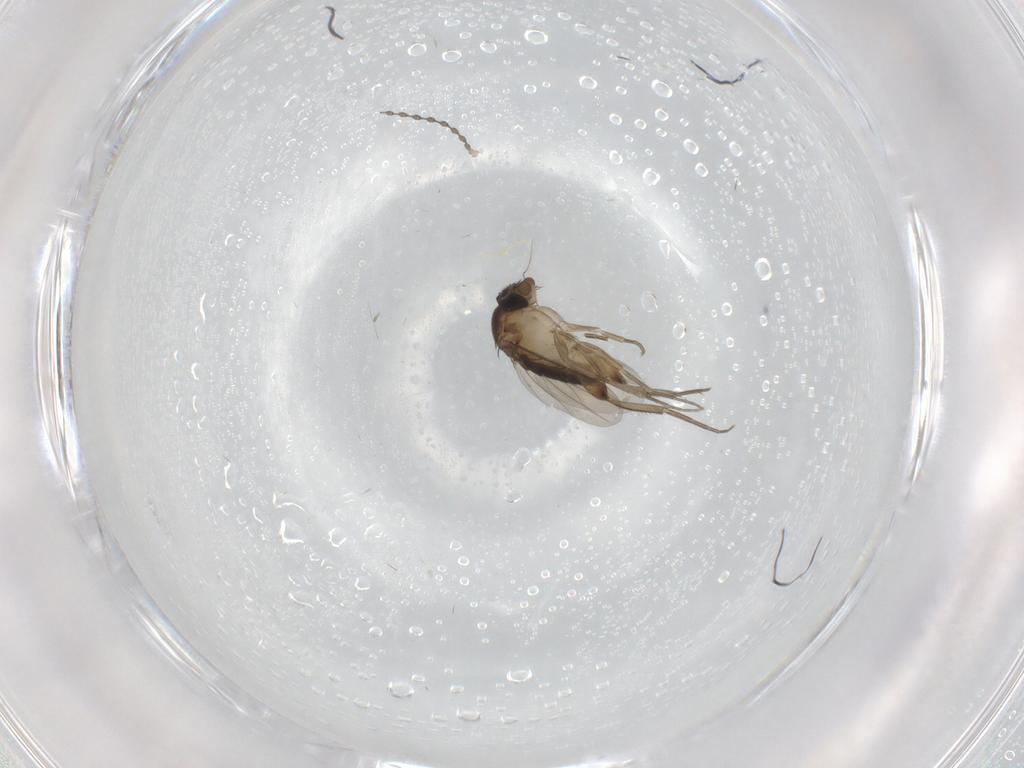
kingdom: Animalia
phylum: Arthropoda
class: Insecta
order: Diptera
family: Phoridae
